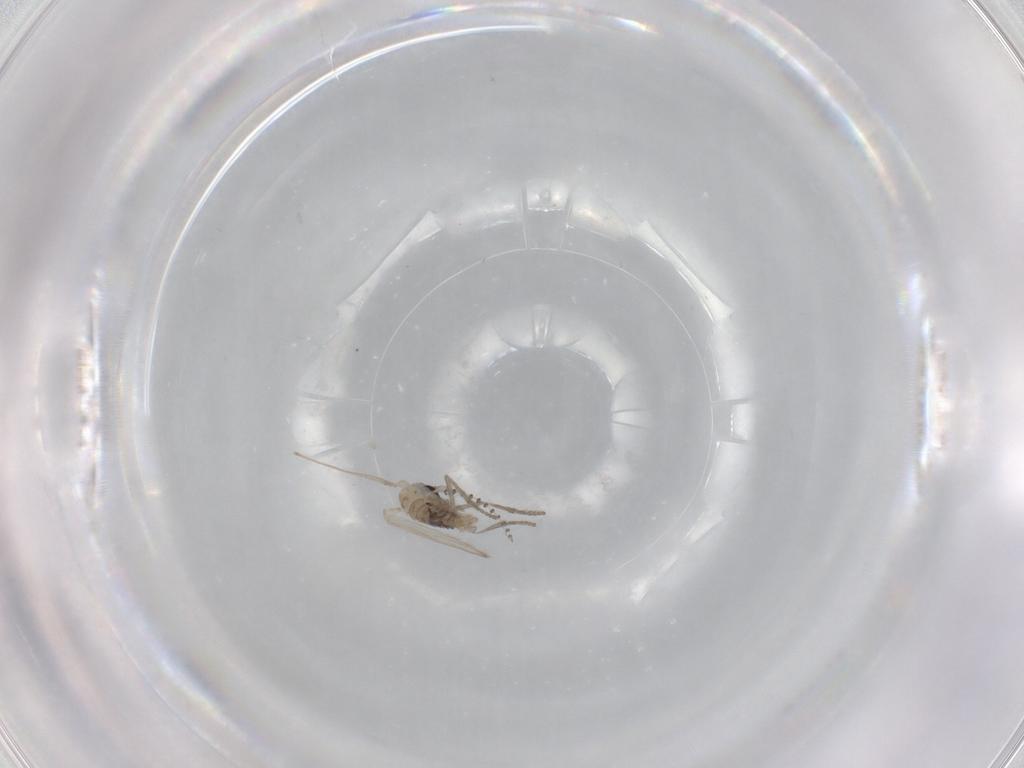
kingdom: Animalia
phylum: Arthropoda
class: Insecta
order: Diptera
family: Psychodidae
